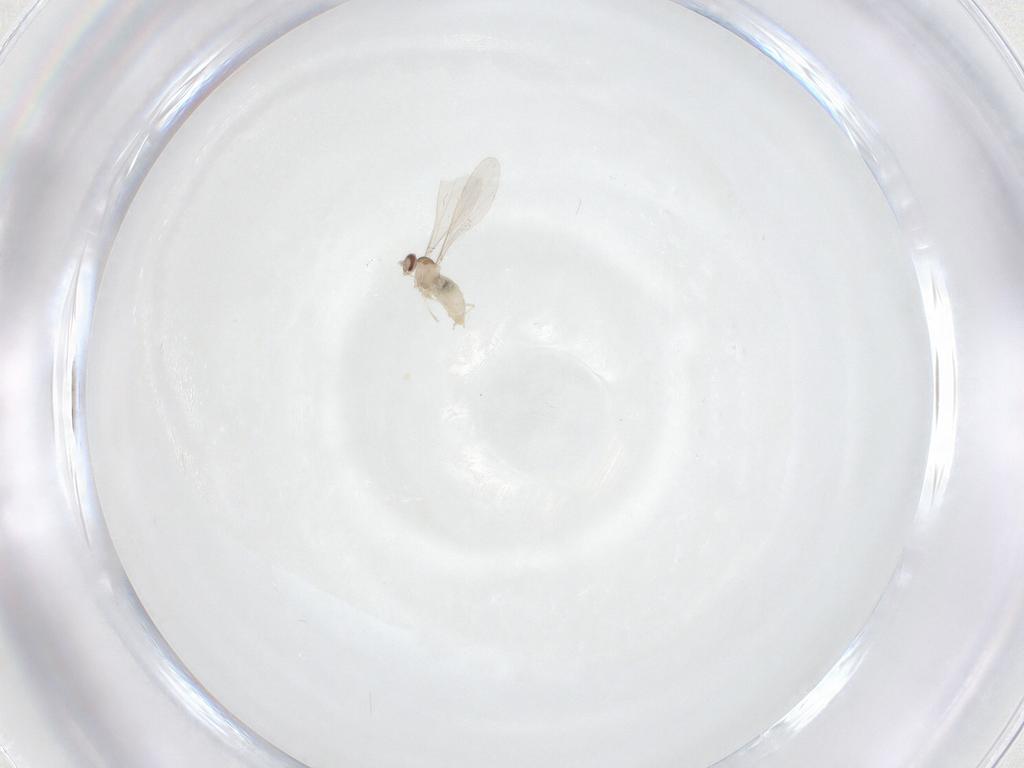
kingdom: Animalia
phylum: Arthropoda
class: Insecta
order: Diptera
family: Cecidomyiidae
